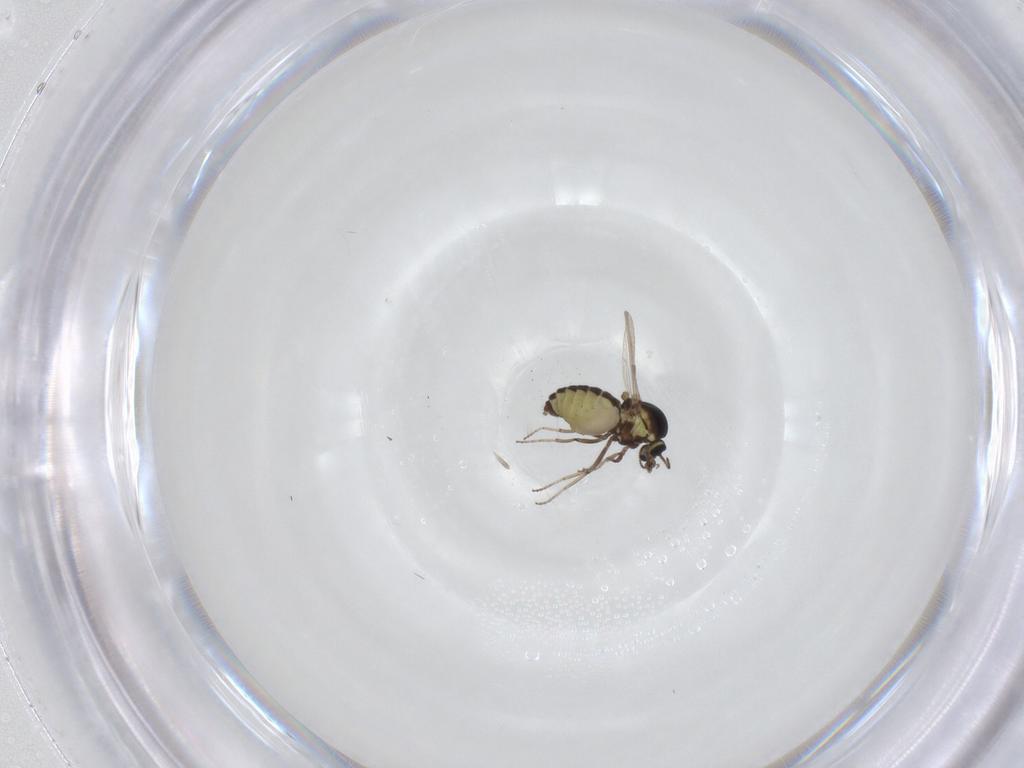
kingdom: Animalia
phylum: Arthropoda
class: Insecta
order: Diptera
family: Ceratopogonidae
